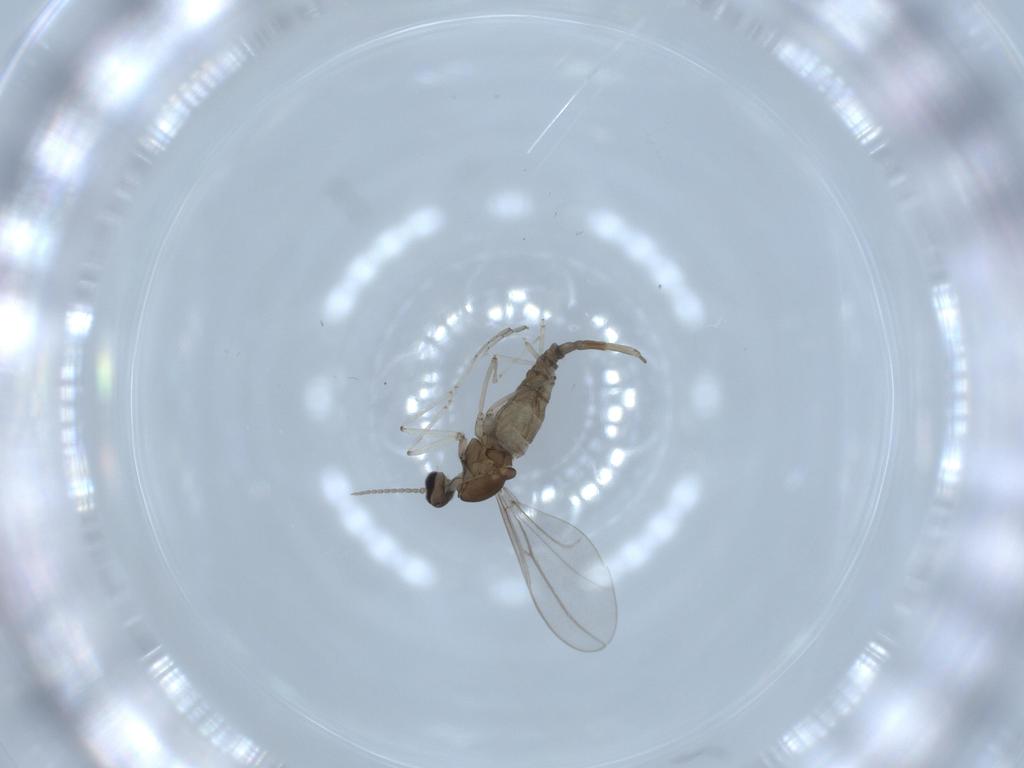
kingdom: Animalia
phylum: Arthropoda
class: Insecta
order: Diptera
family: Cecidomyiidae
